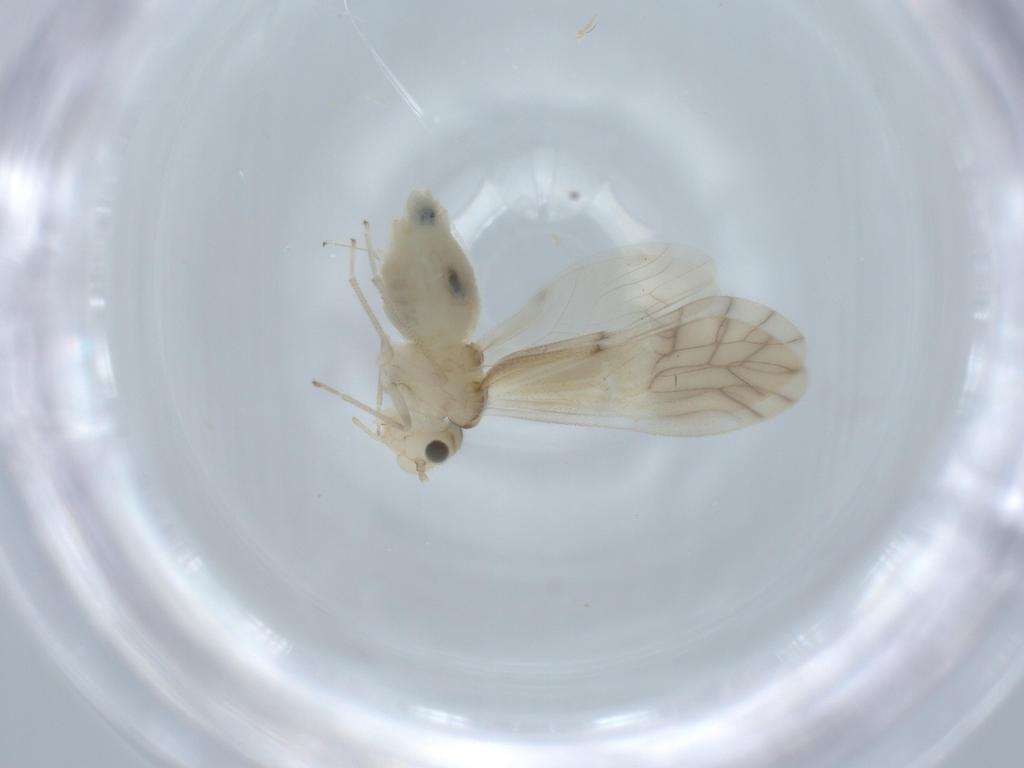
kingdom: Animalia
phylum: Arthropoda
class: Insecta
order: Psocodea
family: Caeciliusidae
